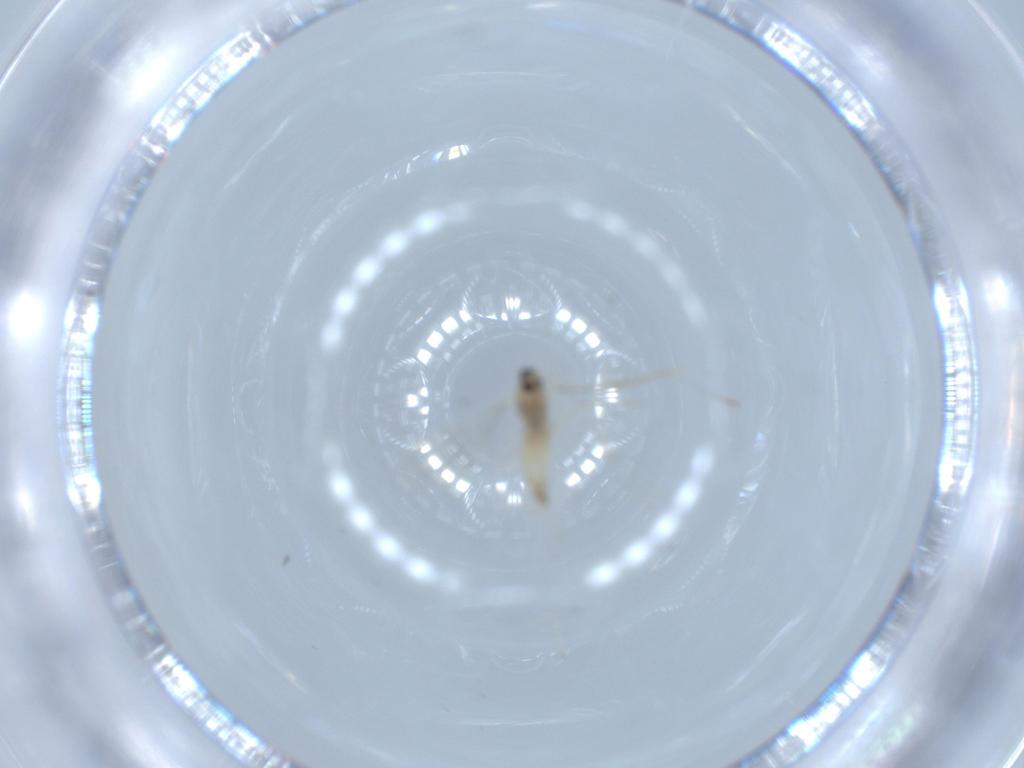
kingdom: Animalia
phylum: Arthropoda
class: Insecta
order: Diptera
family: Cecidomyiidae
